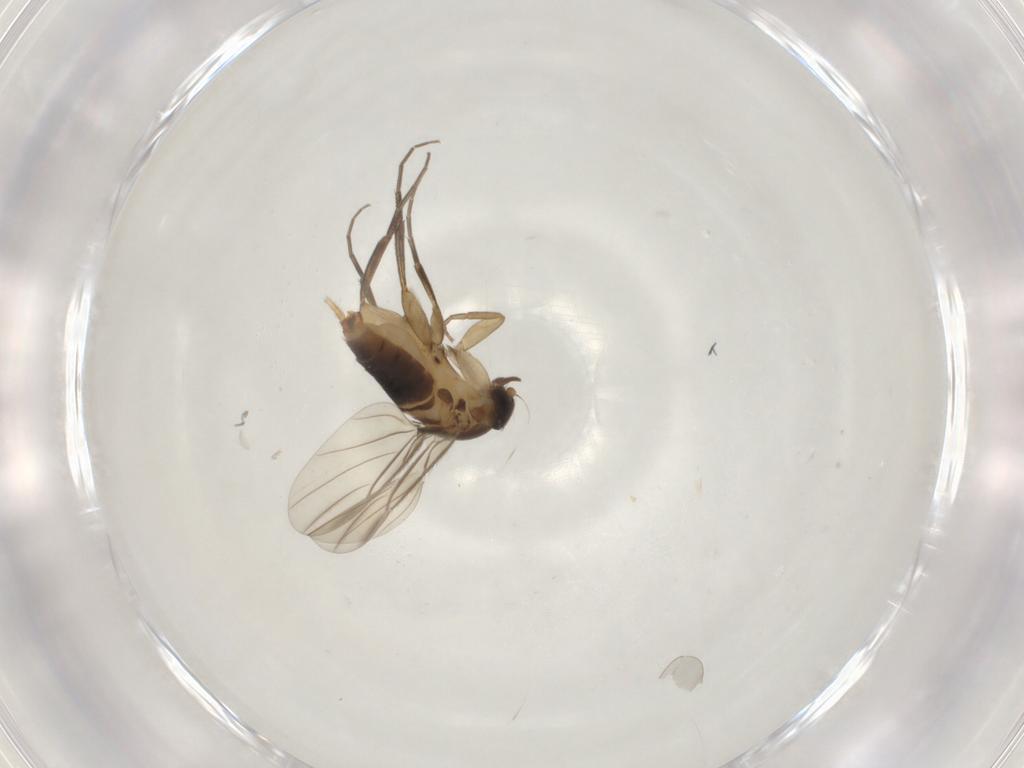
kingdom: Animalia
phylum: Arthropoda
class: Insecta
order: Diptera
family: Phoridae
